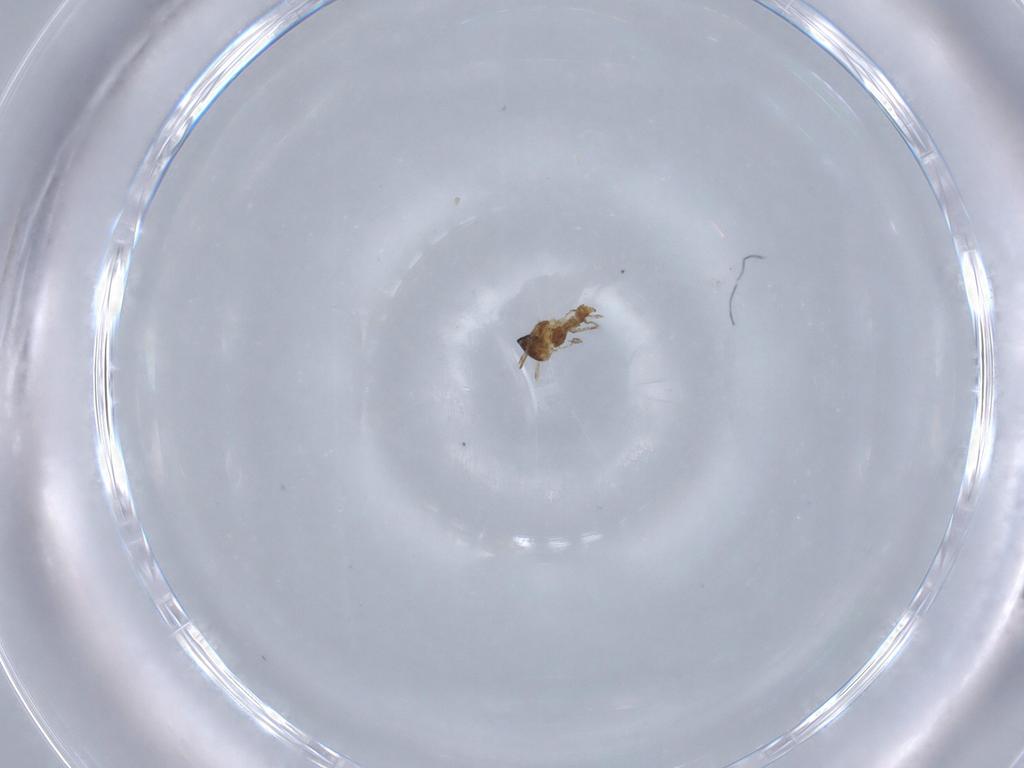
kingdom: Animalia
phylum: Arthropoda
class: Insecta
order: Diptera
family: Cecidomyiidae
